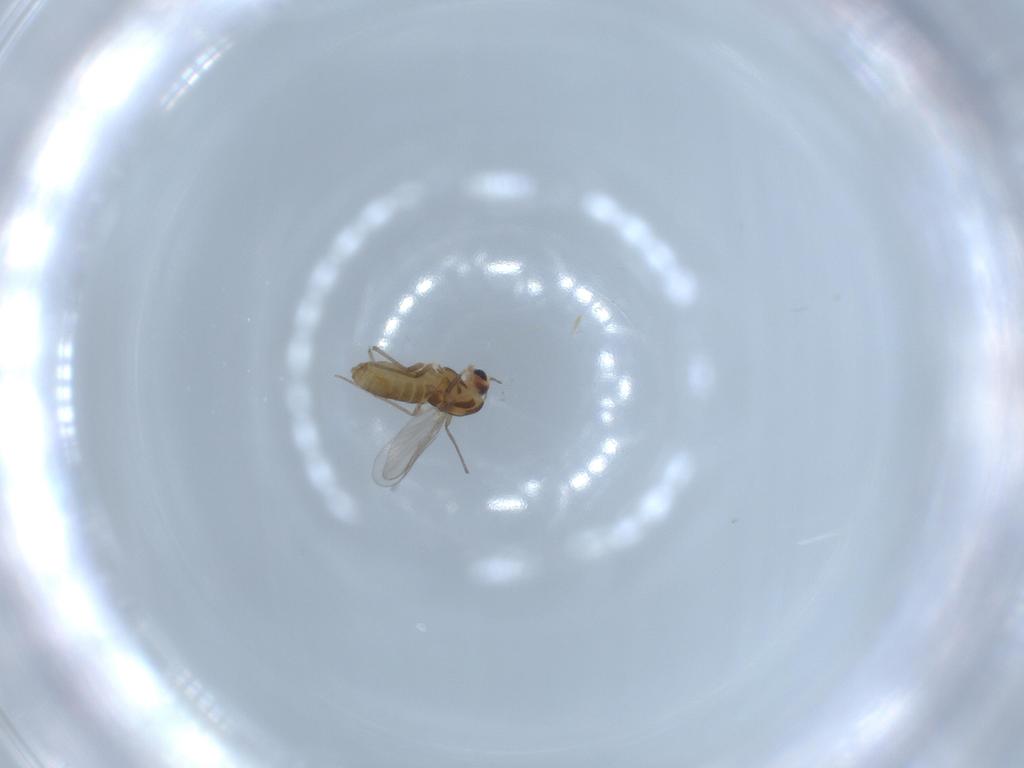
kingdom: Animalia
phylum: Arthropoda
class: Insecta
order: Diptera
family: Chironomidae
